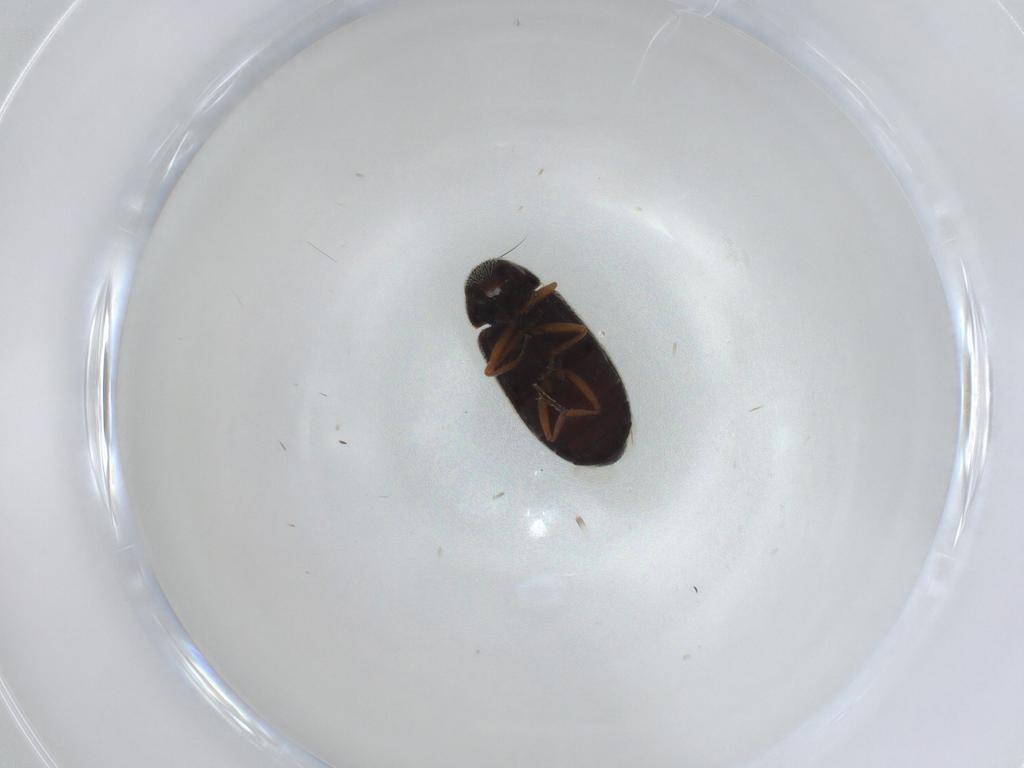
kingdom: Animalia
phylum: Arthropoda
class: Insecta
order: Coleoptera
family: Rhadalidae
